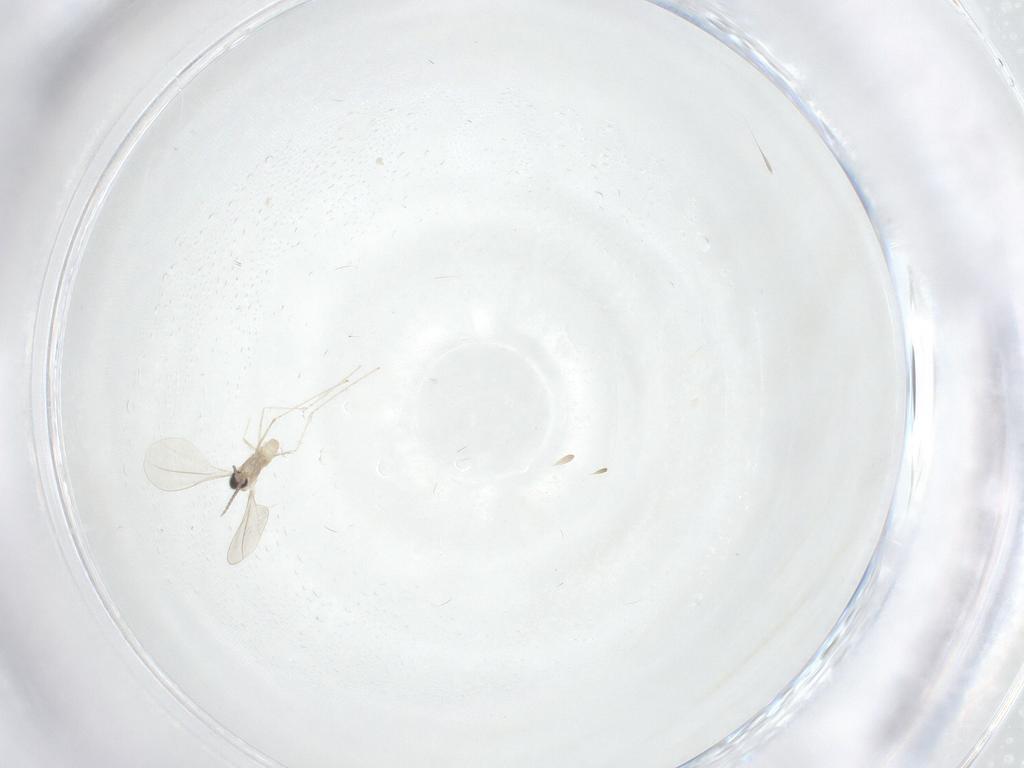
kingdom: Animalia
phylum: Arthropoda
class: Insecta
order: Diptera
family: Cecidomyiidae
